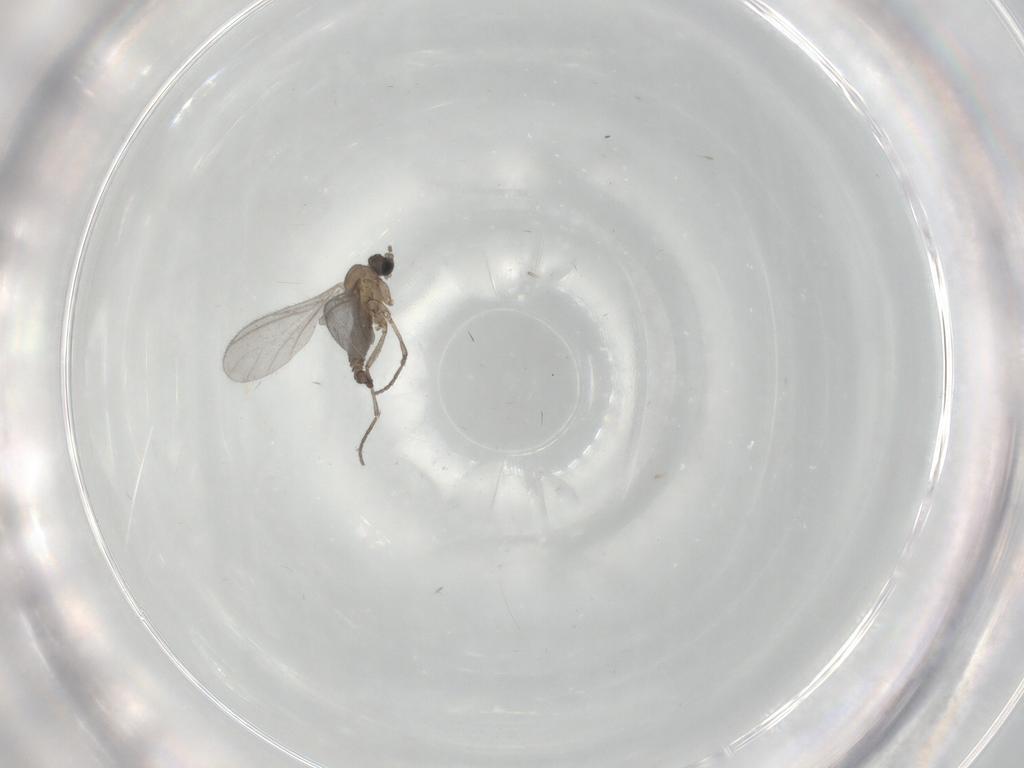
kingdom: Animalia
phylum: Arthropoda
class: Insecta
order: Diptera
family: Sciaridae
